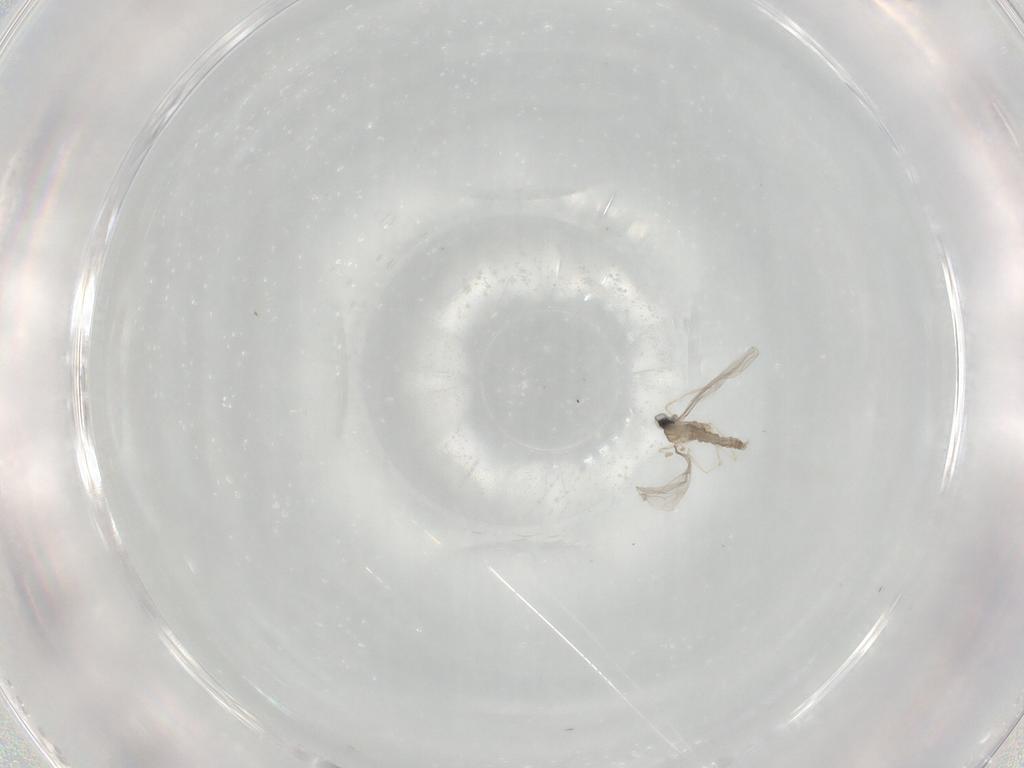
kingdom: Animalia
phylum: Arthropoda
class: Insecta
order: Diptera
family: Cecidomyiidae
